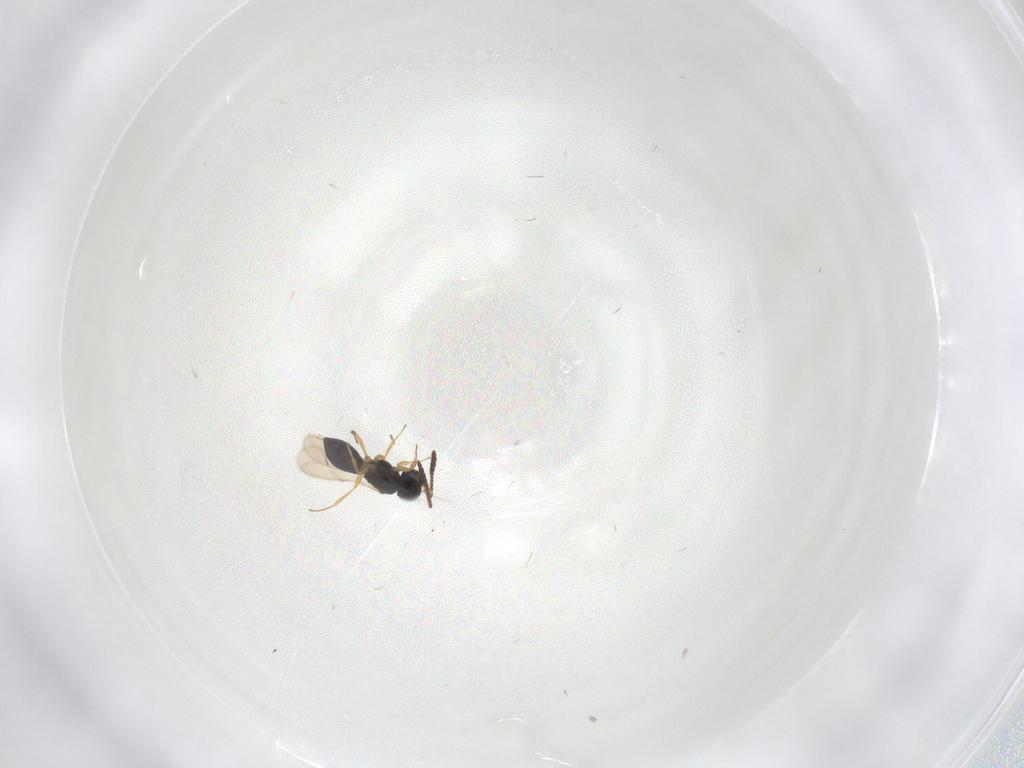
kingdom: Animalia
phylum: Arthropoda
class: Insecta
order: Hymenoptera
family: Scelionidae
